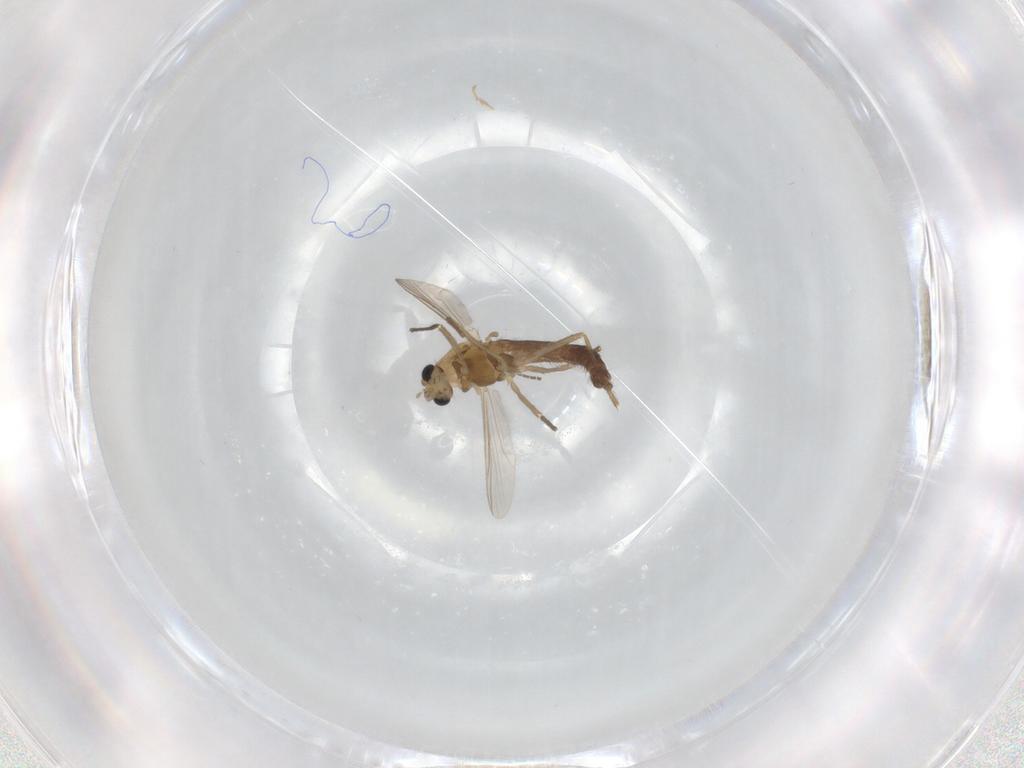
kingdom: Animalia
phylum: Arthropoda
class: Insecta
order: Diptera
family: Chironomidae
